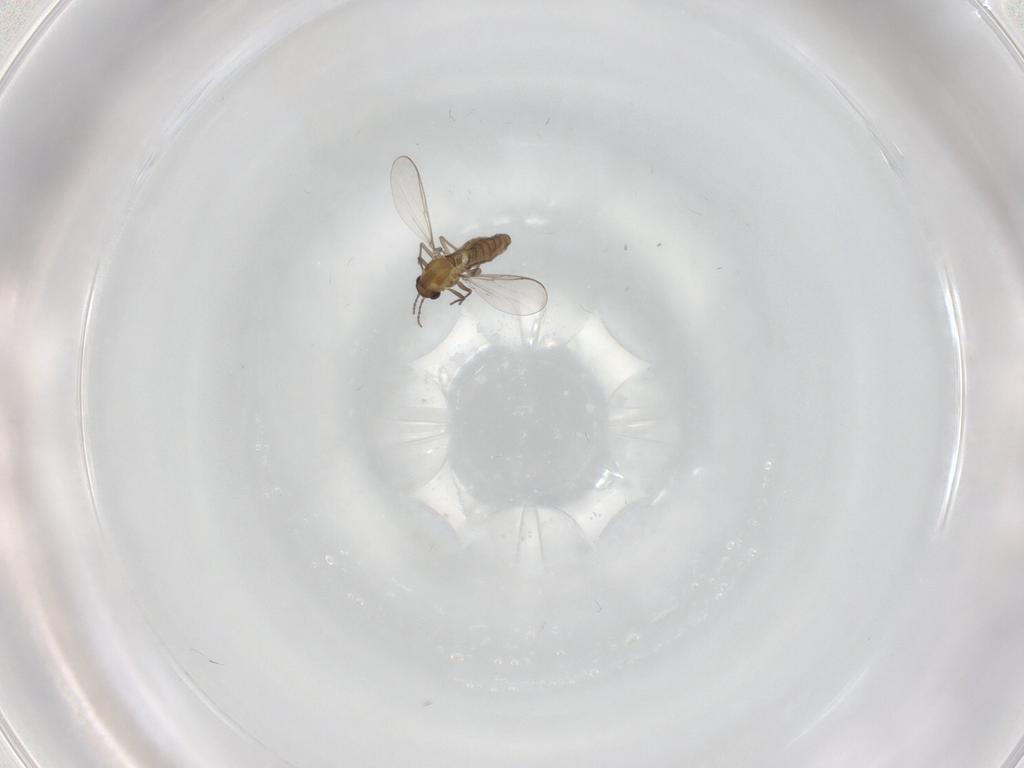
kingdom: Animalia
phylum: Arthropoda
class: Insecta
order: Diptera
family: Chironomidae
